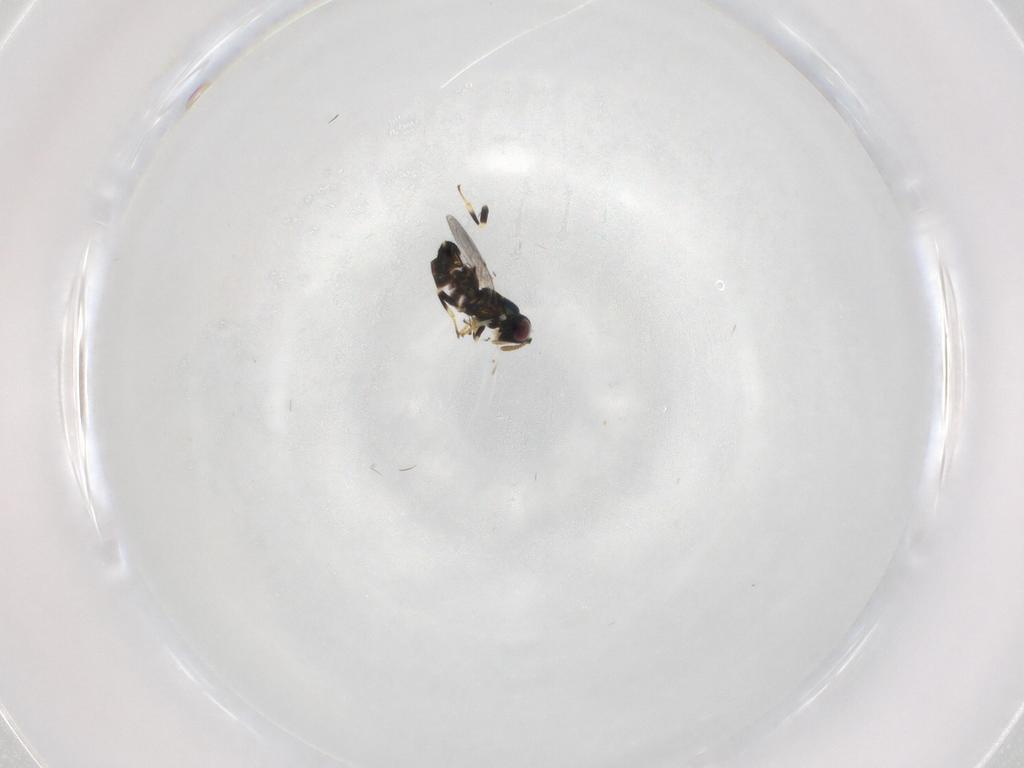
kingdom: Animalia
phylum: Arthropoda
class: Insecta
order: Hymenoptera
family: Encyrtidae
